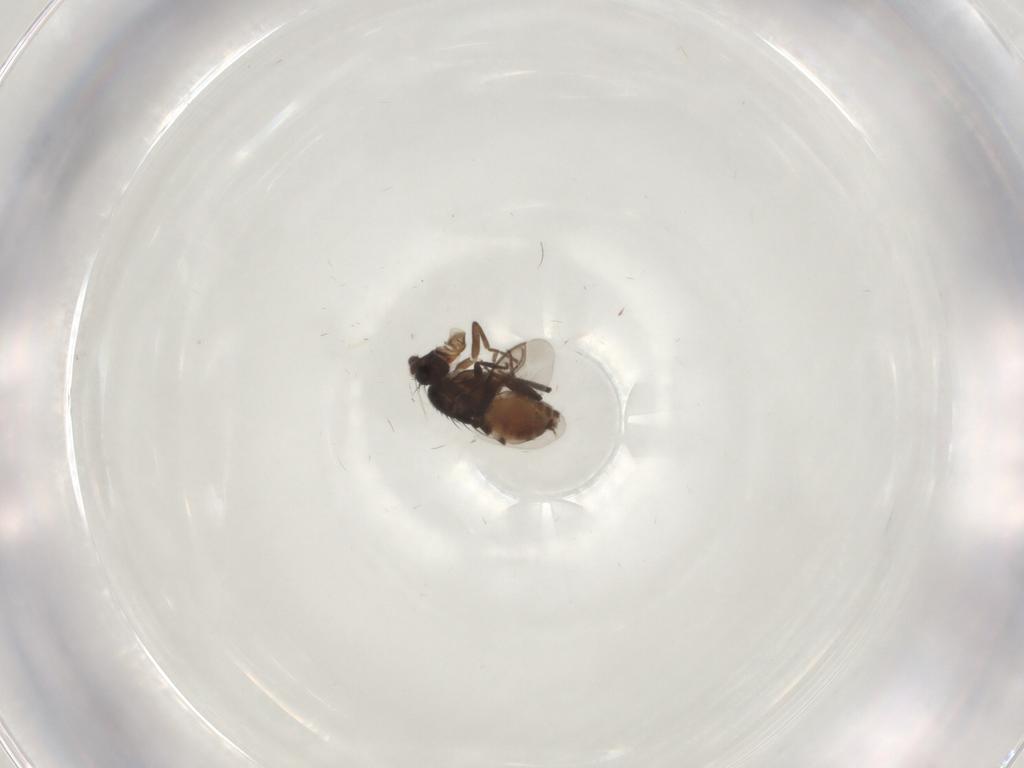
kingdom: Animalia
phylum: Arthropoda
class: Insecta
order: Diptera
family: Sphaeroceridae
